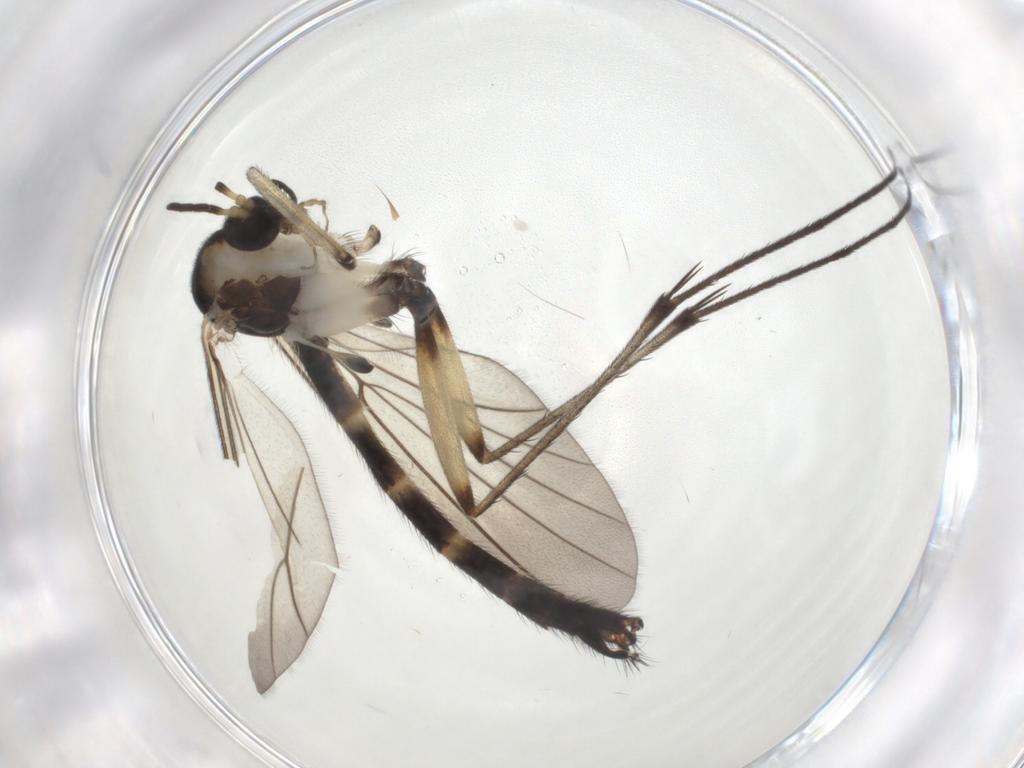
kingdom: Animalia
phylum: Arthropoda
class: Insecta
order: Diptera
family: Mycetophilidae
